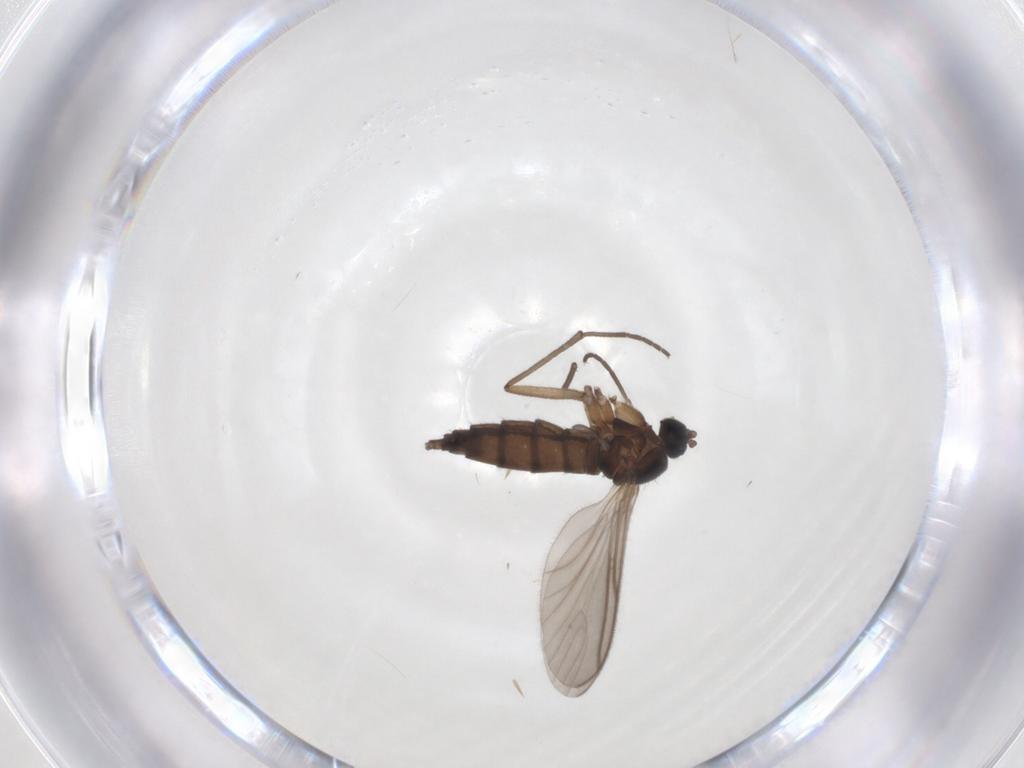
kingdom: Animalia
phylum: Arthropoda
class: Insecta
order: Diptera
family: Sciaridae
